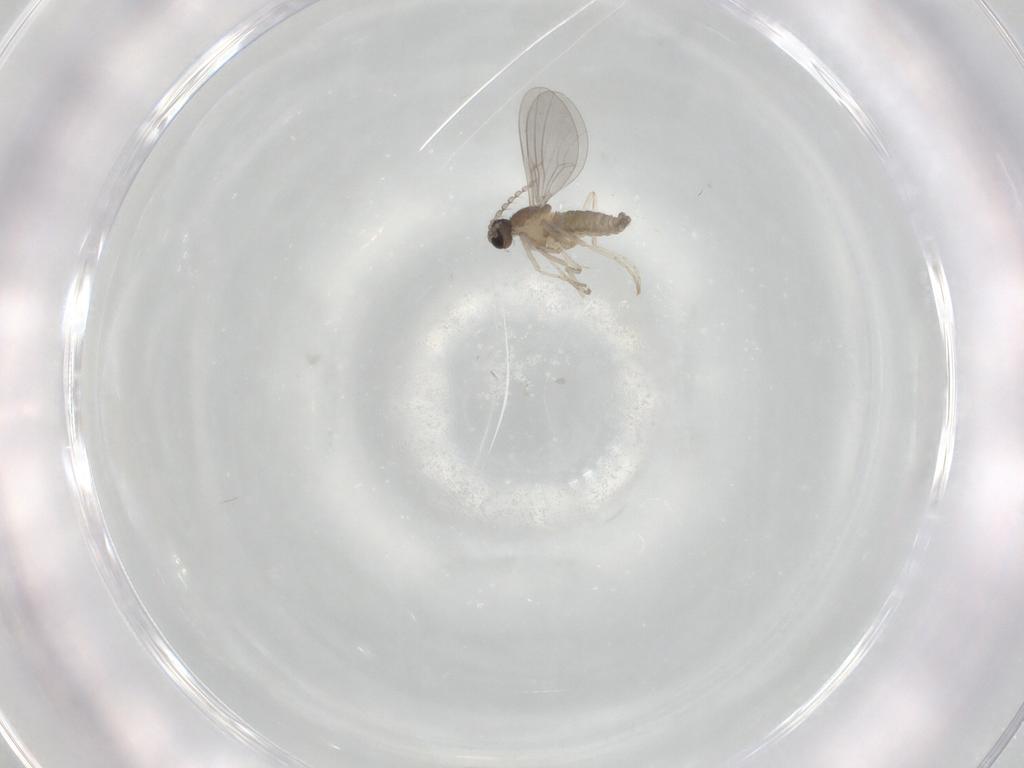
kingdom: Animalia
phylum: Arthropoda
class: Insecta
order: Diptera
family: Cecidomyiidae
